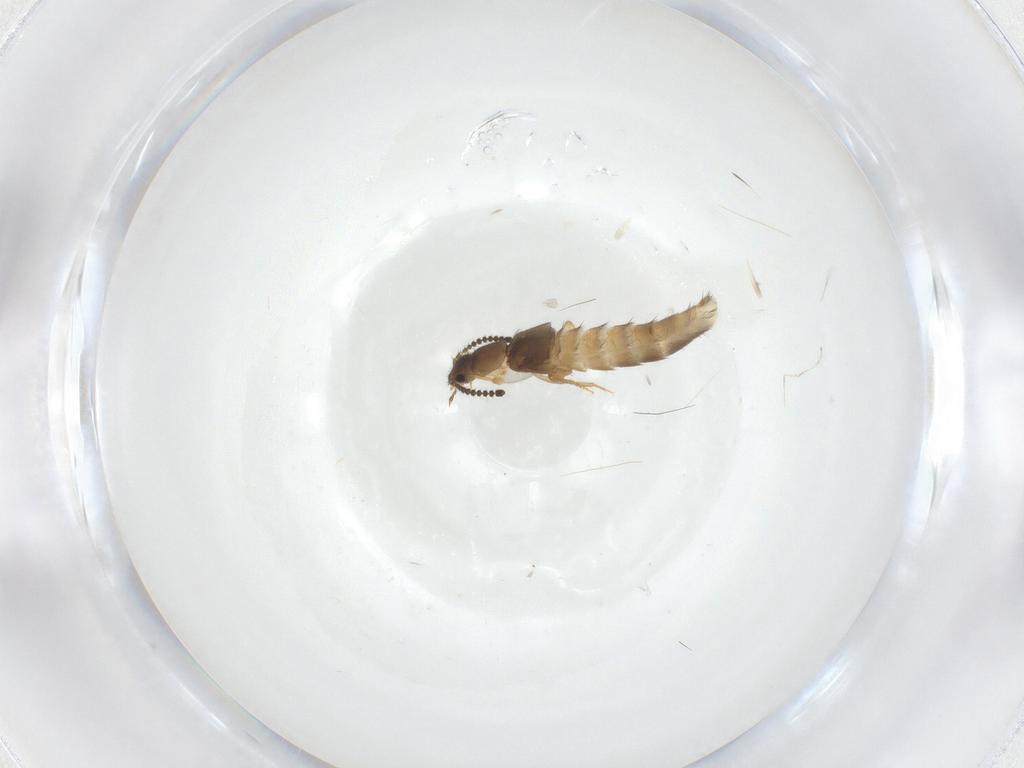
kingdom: Animalia
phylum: Arthropoda
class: Insecta
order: Coleoptera
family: Staphylinidae
